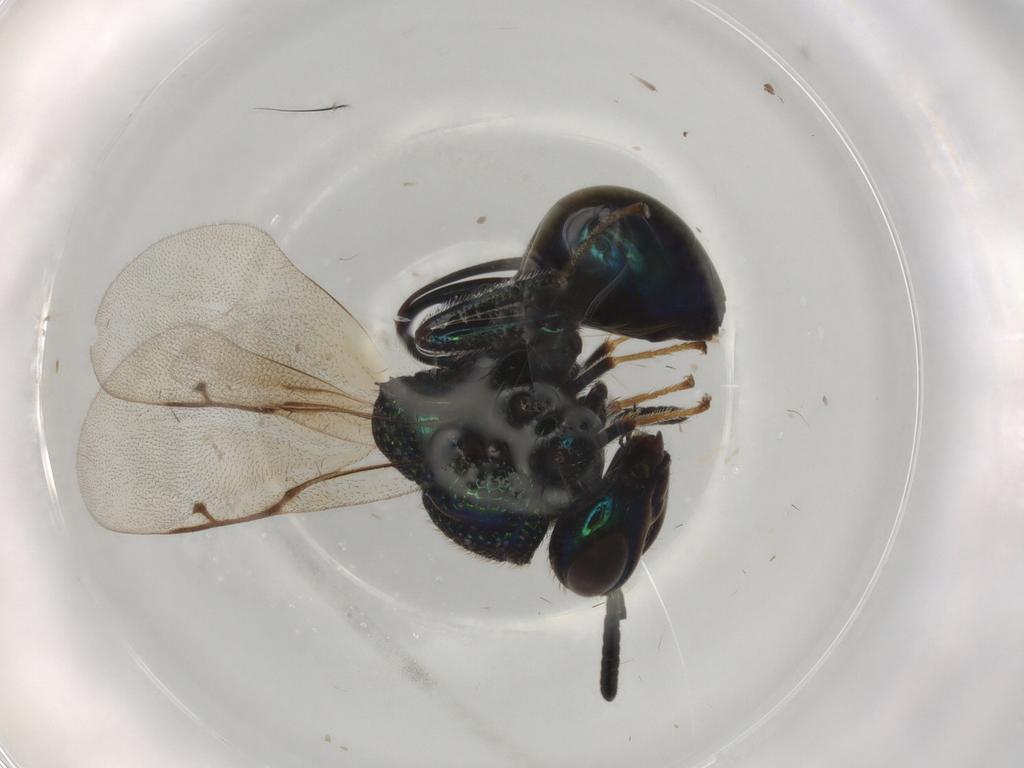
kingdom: Animalia
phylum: Arthropoda
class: Insecta
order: Hymenoptera
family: Perilampidae
